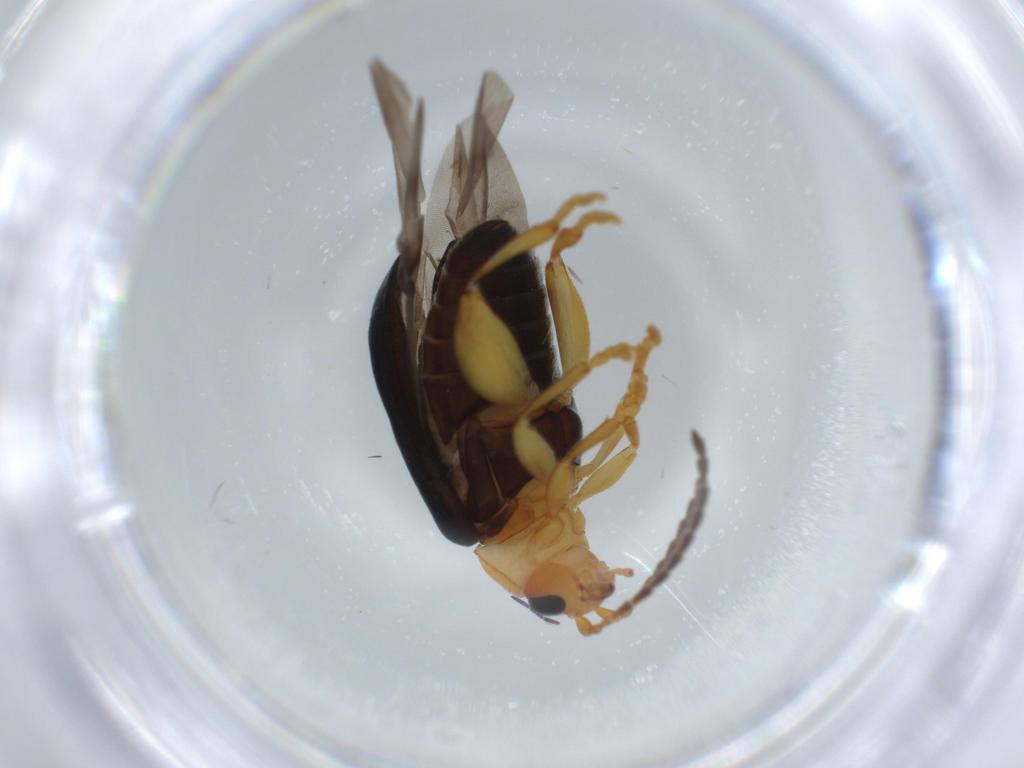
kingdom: Animalia
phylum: Arthropoda
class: Insecta
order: Coleoptera
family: Chrysomelidae
